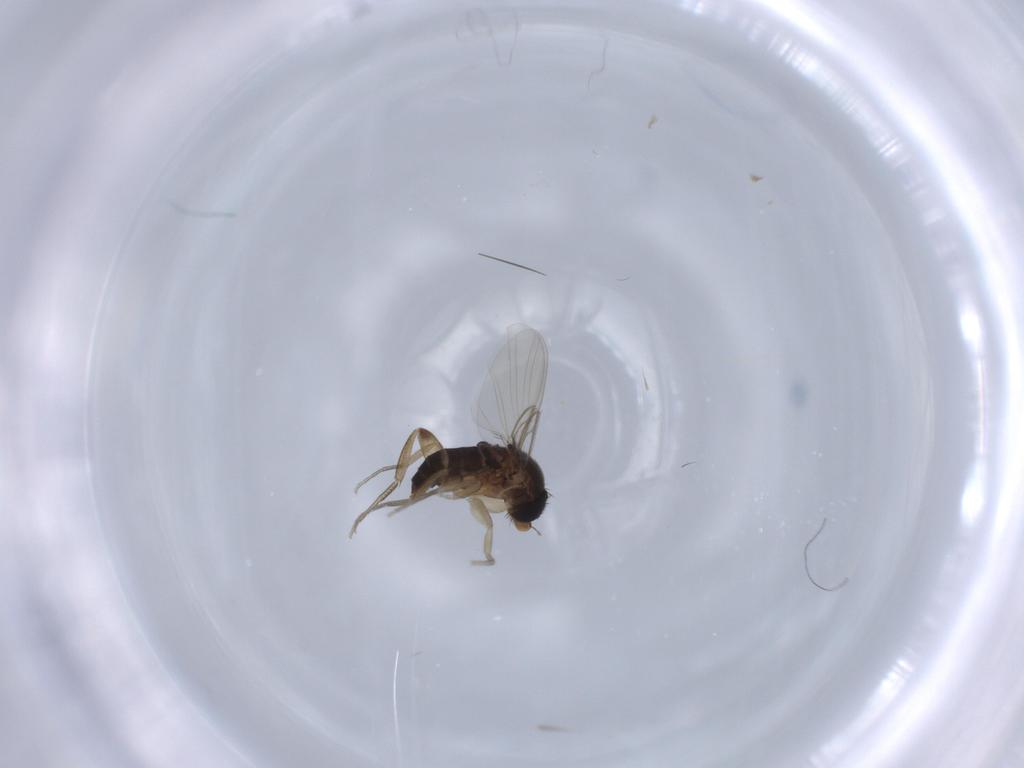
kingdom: Animalia
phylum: Arthropoda
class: Insecta
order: Diptera
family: Phoridae
